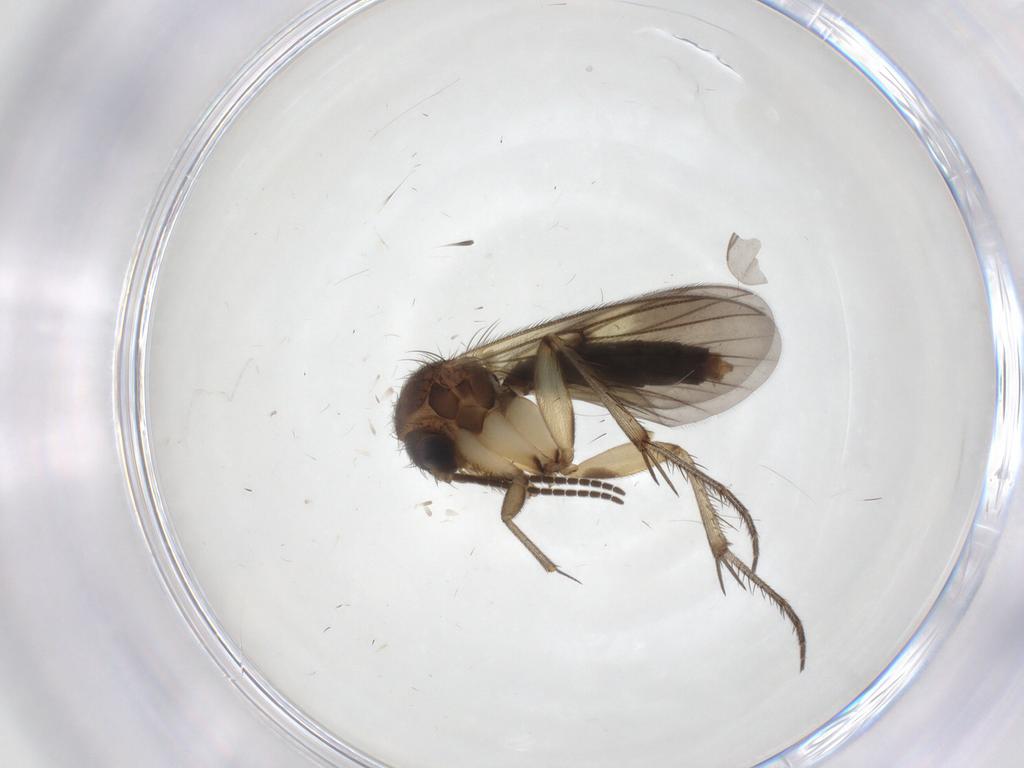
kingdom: Animalia
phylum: Arthropoda
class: Insecta
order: Diptera
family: Mycetophilidae
